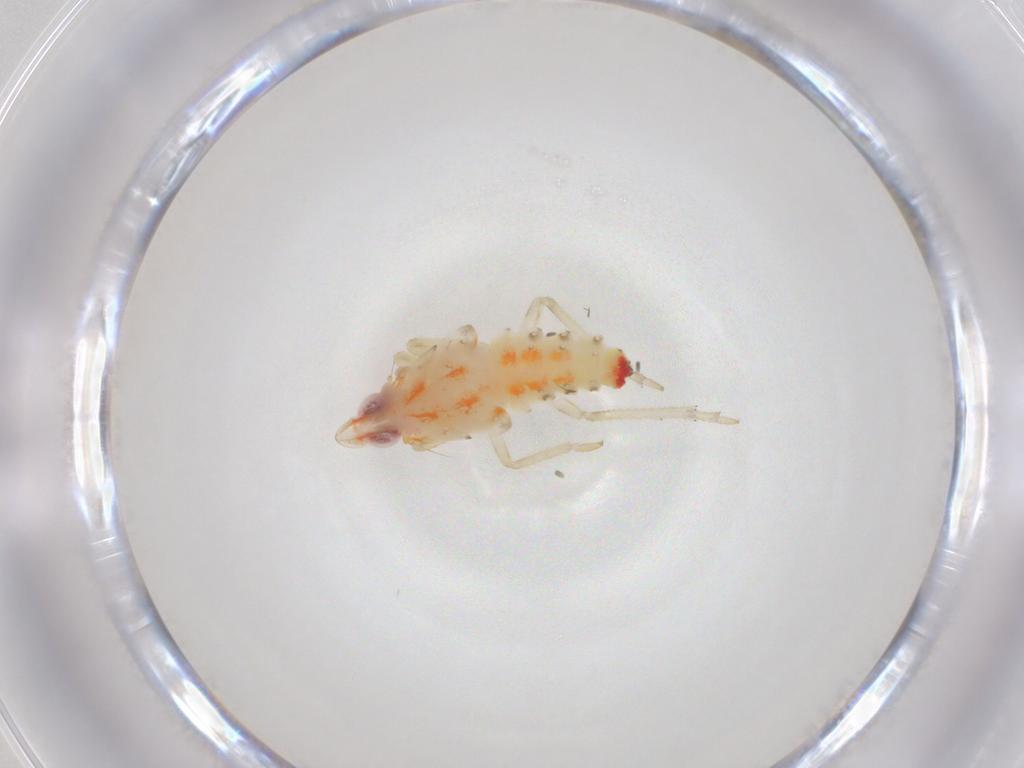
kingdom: Animalia
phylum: Arthropoda
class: Insecta
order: Hemiptera
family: Tropiduchidae
